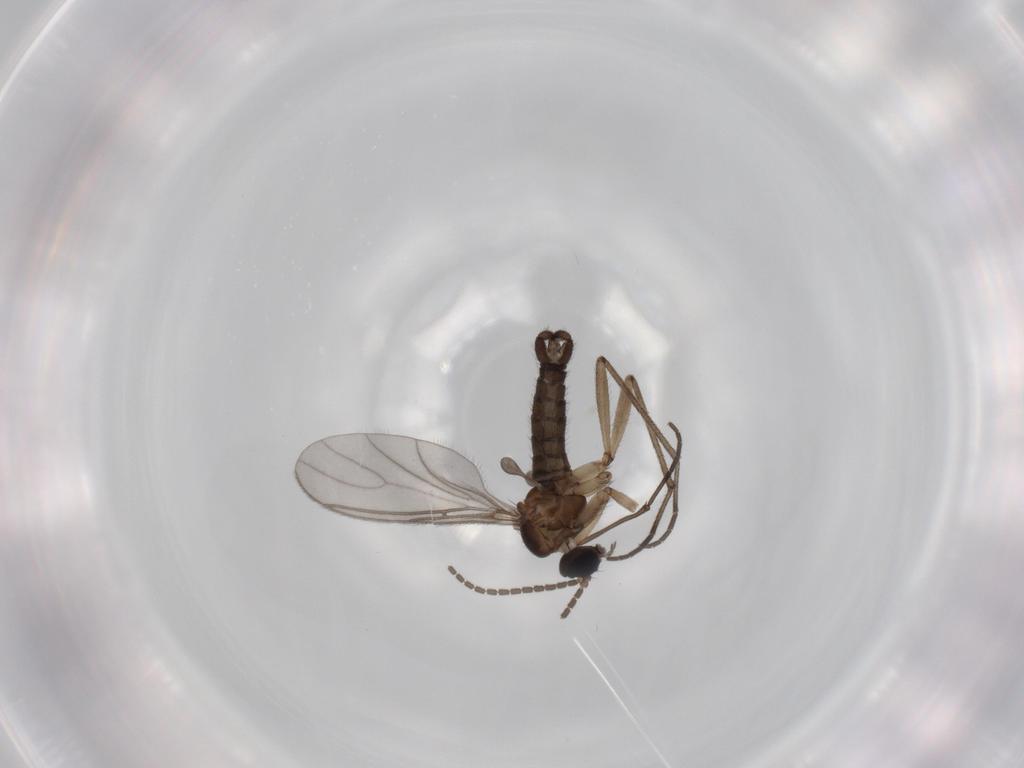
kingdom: Animalia
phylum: Arthropoda
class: Insecta
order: Diptera
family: Sciaridae
